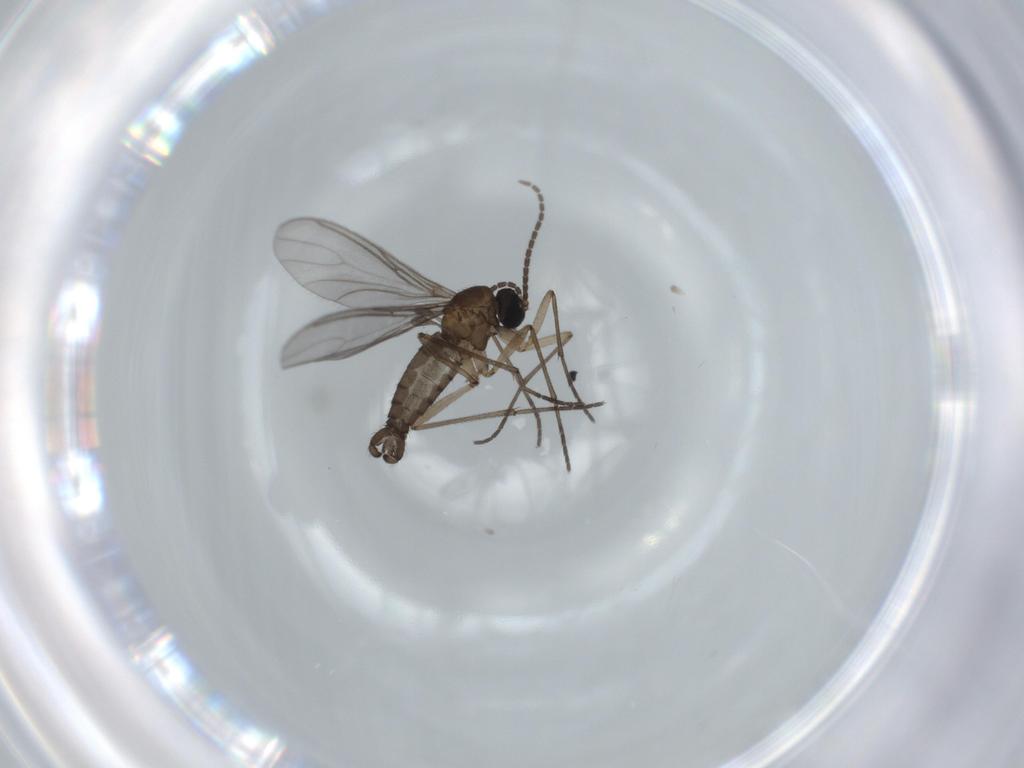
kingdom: Animalia
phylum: Arthropoda
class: Insecta
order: Diptera
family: Sciaridae
